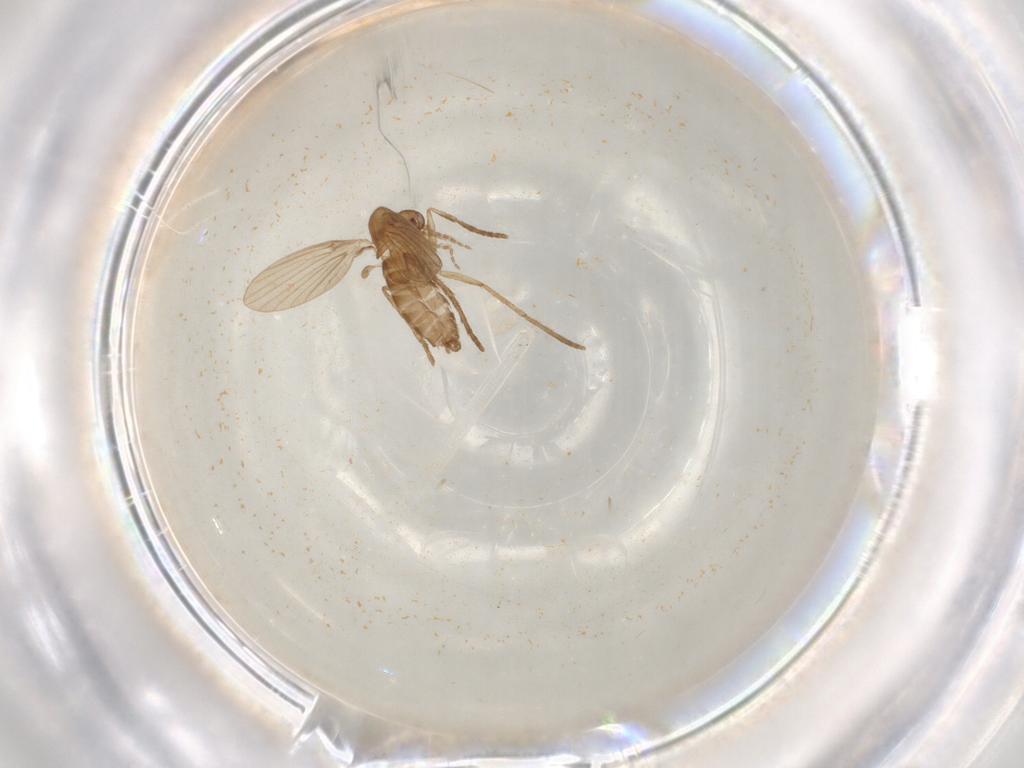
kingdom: Animalia
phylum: Arthropoda
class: Insecta
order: Diptera
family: Psychodidae
